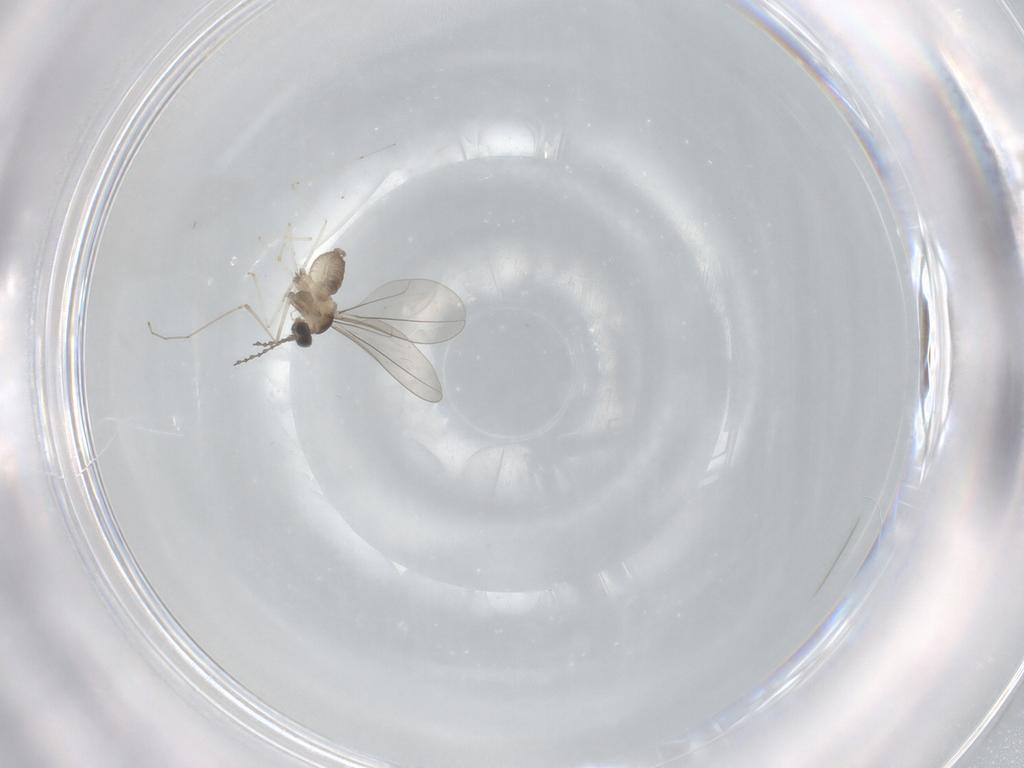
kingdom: Animalia
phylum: Arthropoda
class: Insecta
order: Diptera
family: Cecidomyiidae
